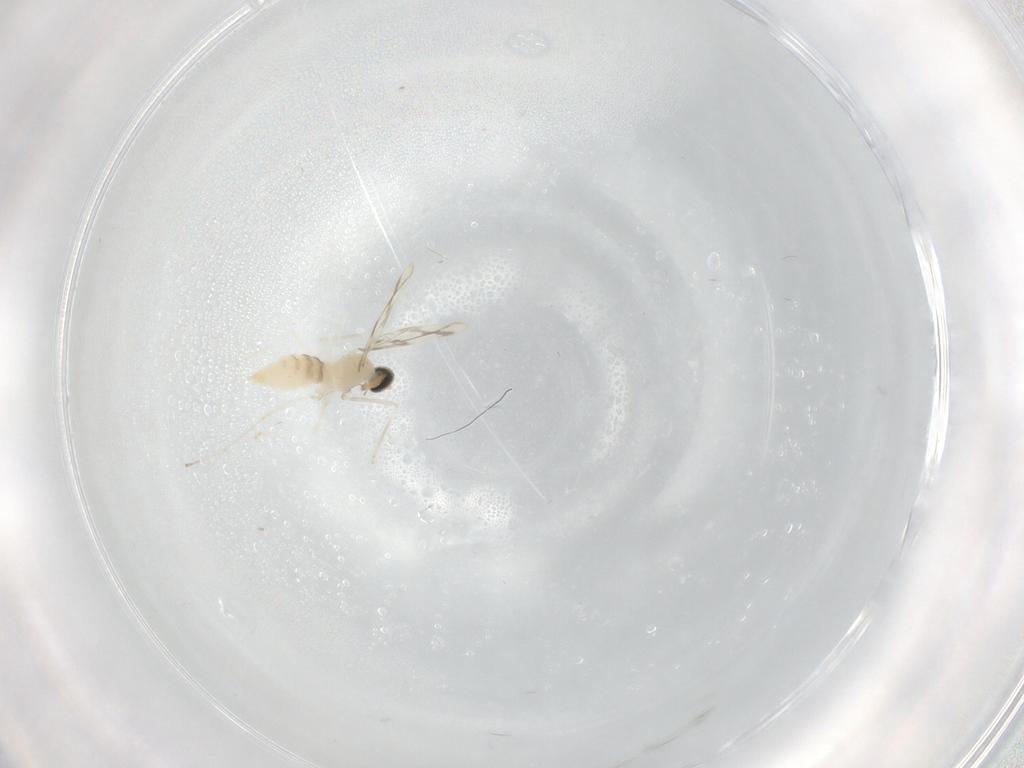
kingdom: Animalia
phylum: Arthropoda
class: Insecta
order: Diptera
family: Cecidomyiidae
